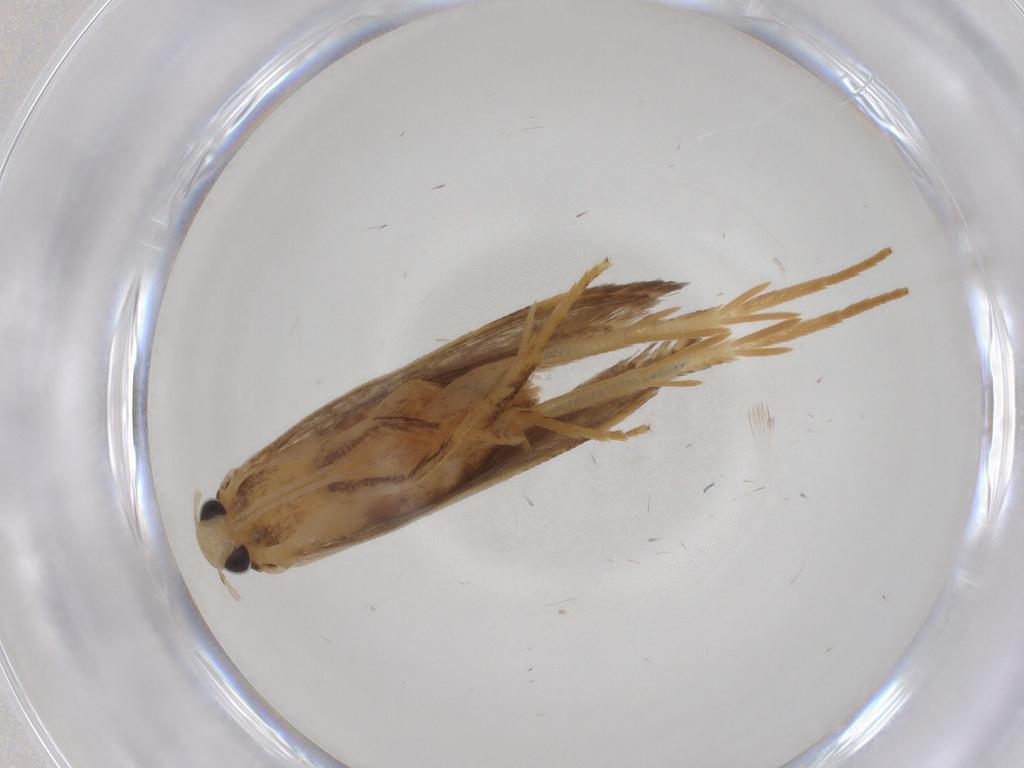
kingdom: Animalia
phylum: Arthropoda
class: Insecta
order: Lepidoptera
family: Gelechiidae
